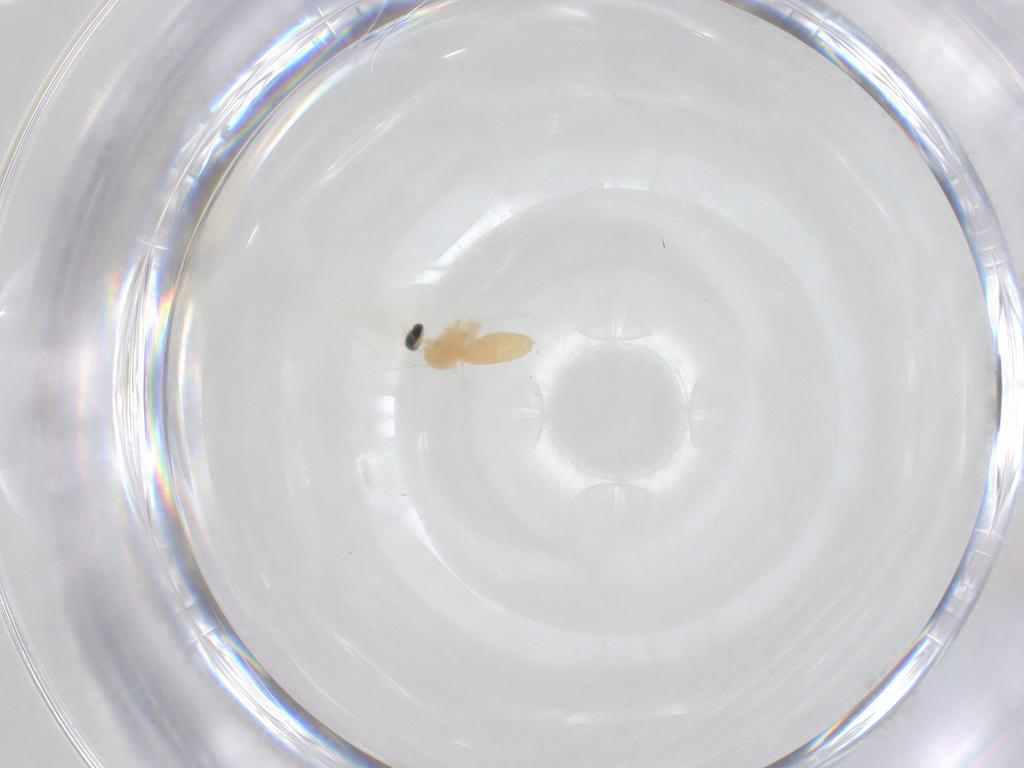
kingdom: Animalia
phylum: Arthropoda
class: Insecta
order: Diptera
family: Cecidomyiidae
